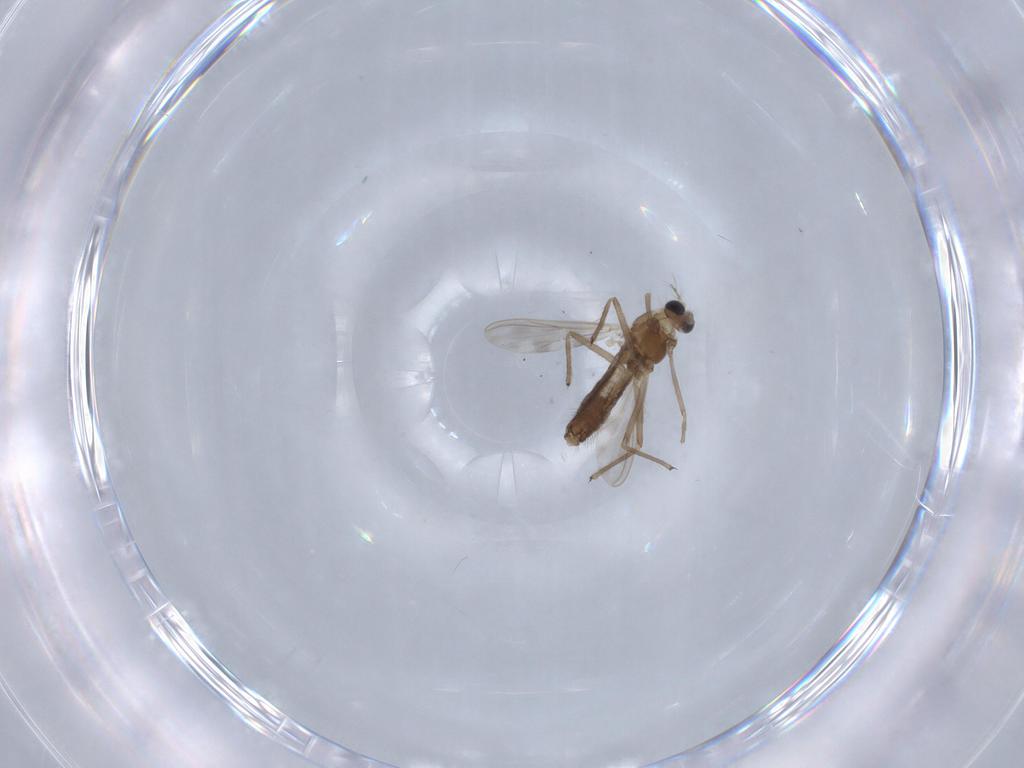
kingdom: Animalia
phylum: Arthropoda
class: Insecta
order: Diptera
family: Chironomidae
